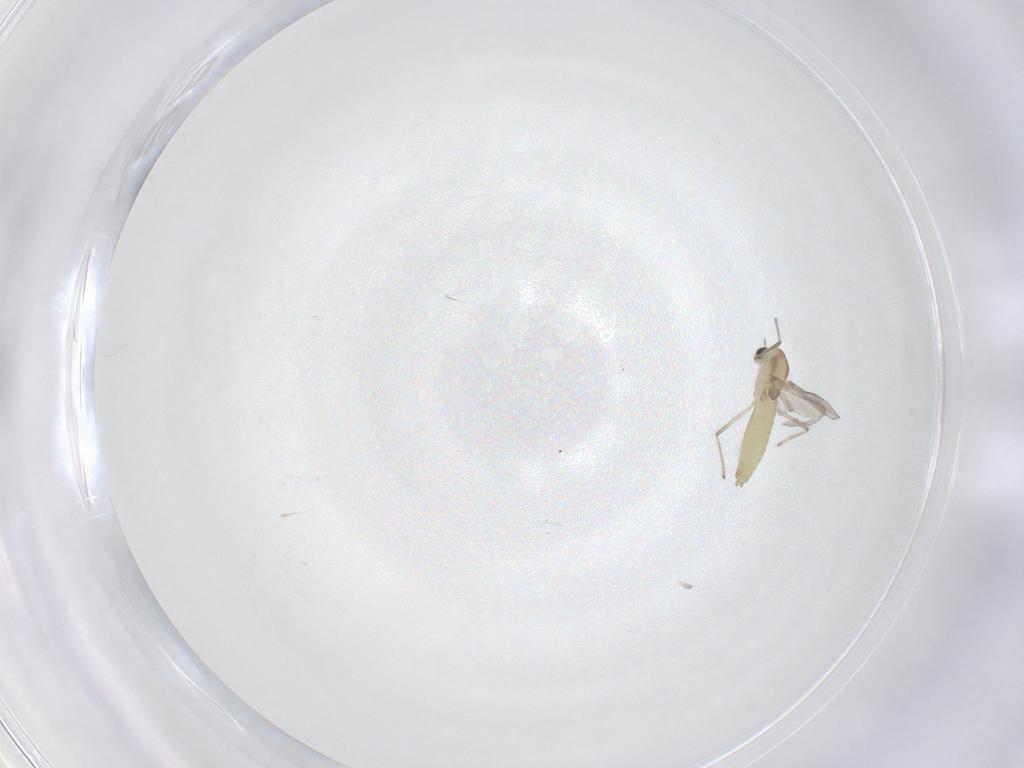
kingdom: Animalia
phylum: Arthropoda
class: Insecta
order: Diptera
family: Chironomidae
